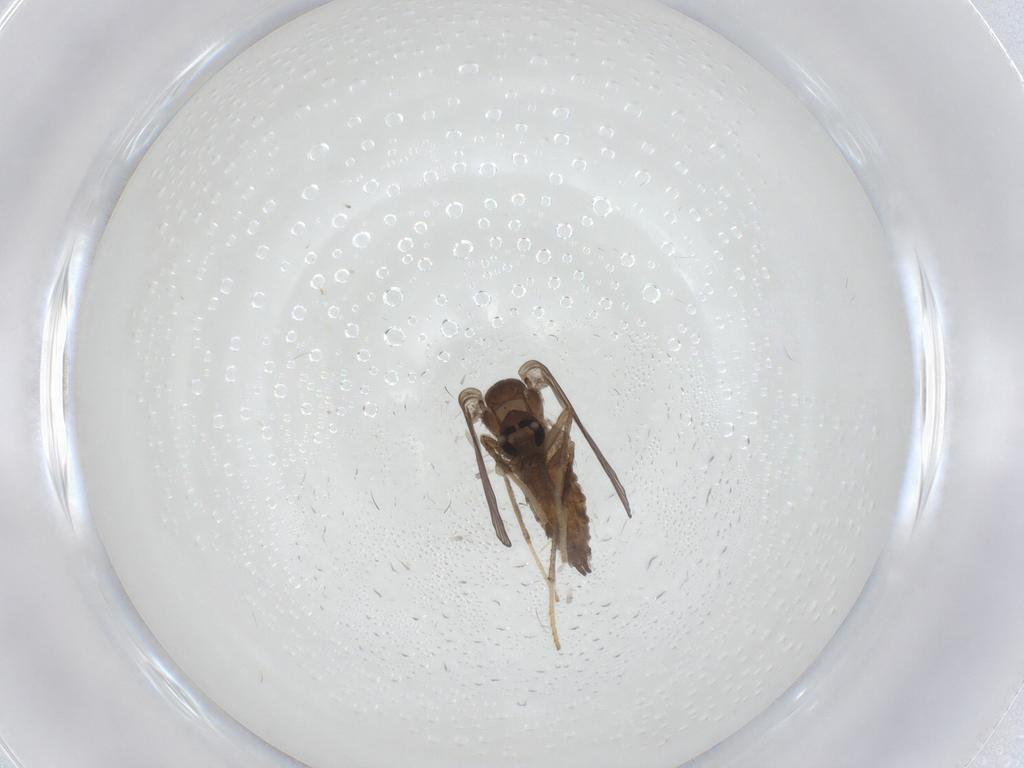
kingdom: Animalia
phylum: Arthropoda
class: Insecta
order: Diptera
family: Psychodidae
